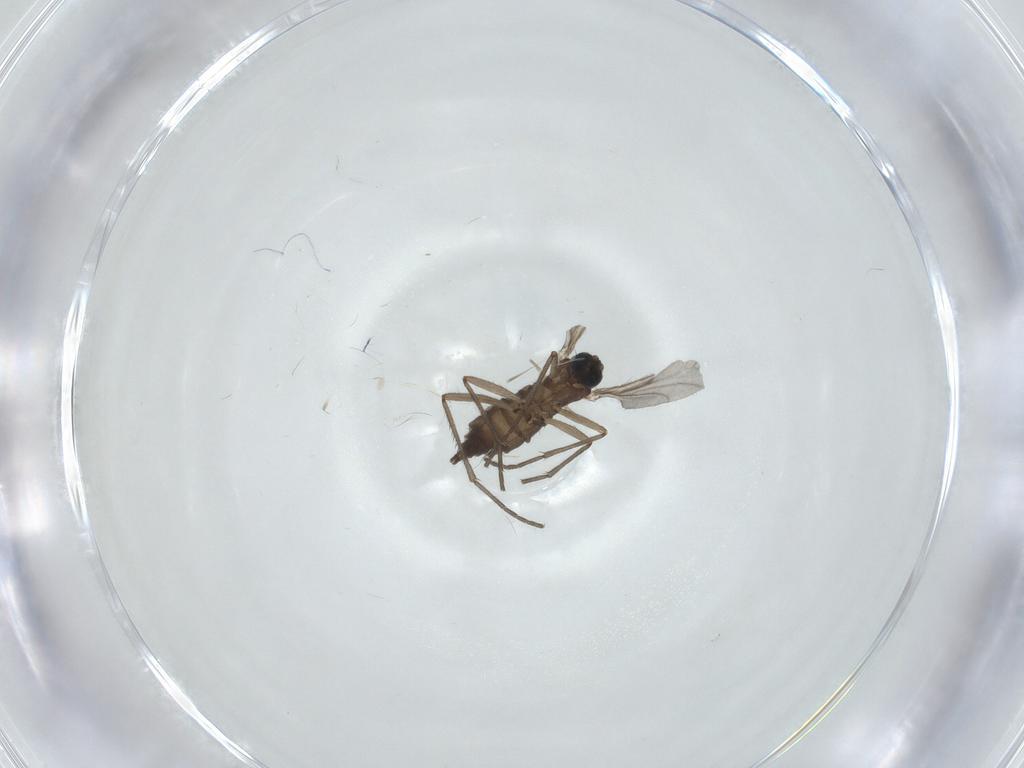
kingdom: Animalia
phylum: Arthropoda
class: Insecta
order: Diptera
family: Sciaridae
